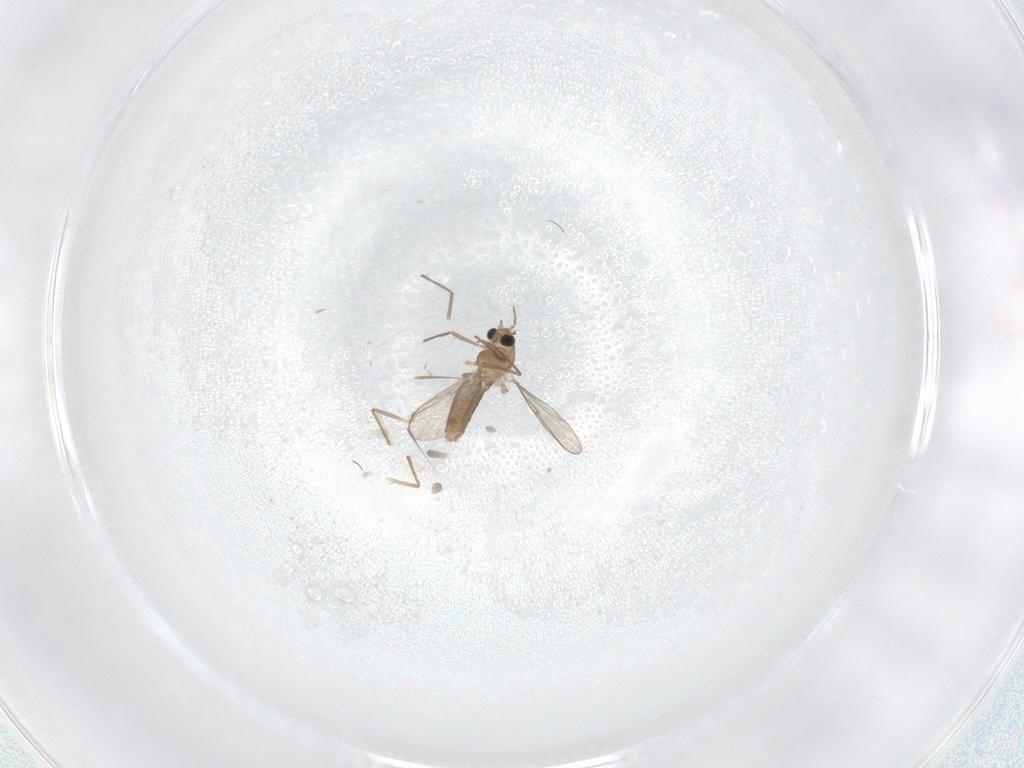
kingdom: Animalia
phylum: Arthropoda
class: Insecta
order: Diptera
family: Chironomidae
